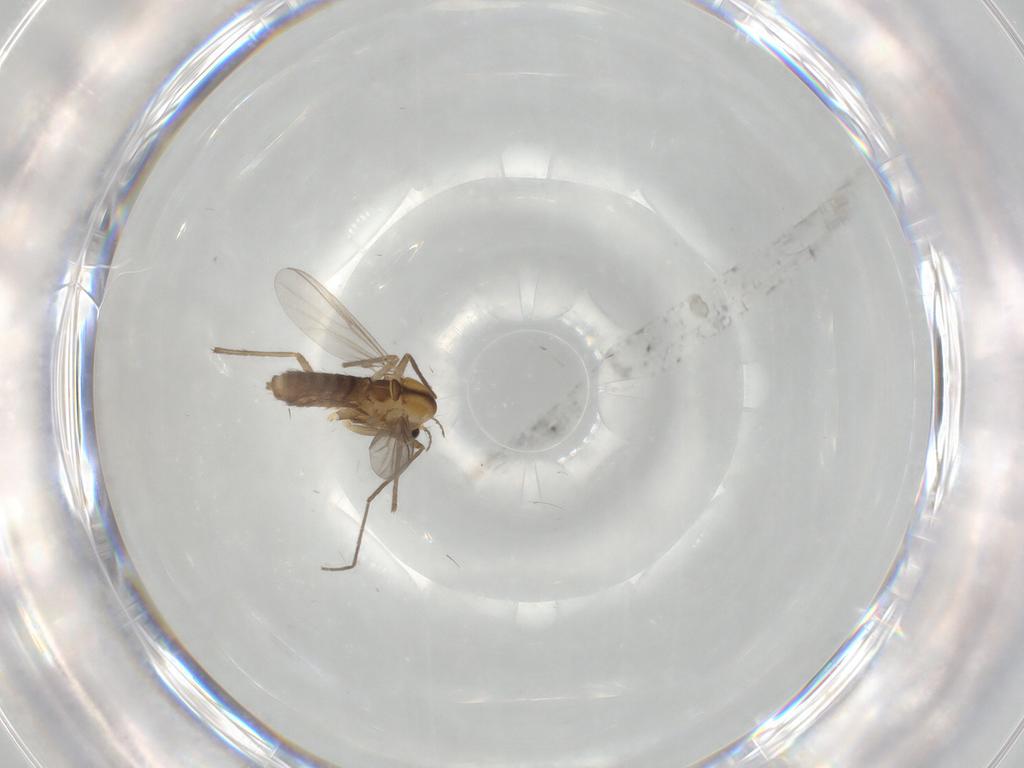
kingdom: Animalia
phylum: Arthropoda
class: Insecta
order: Diptera
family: Chironomidae
